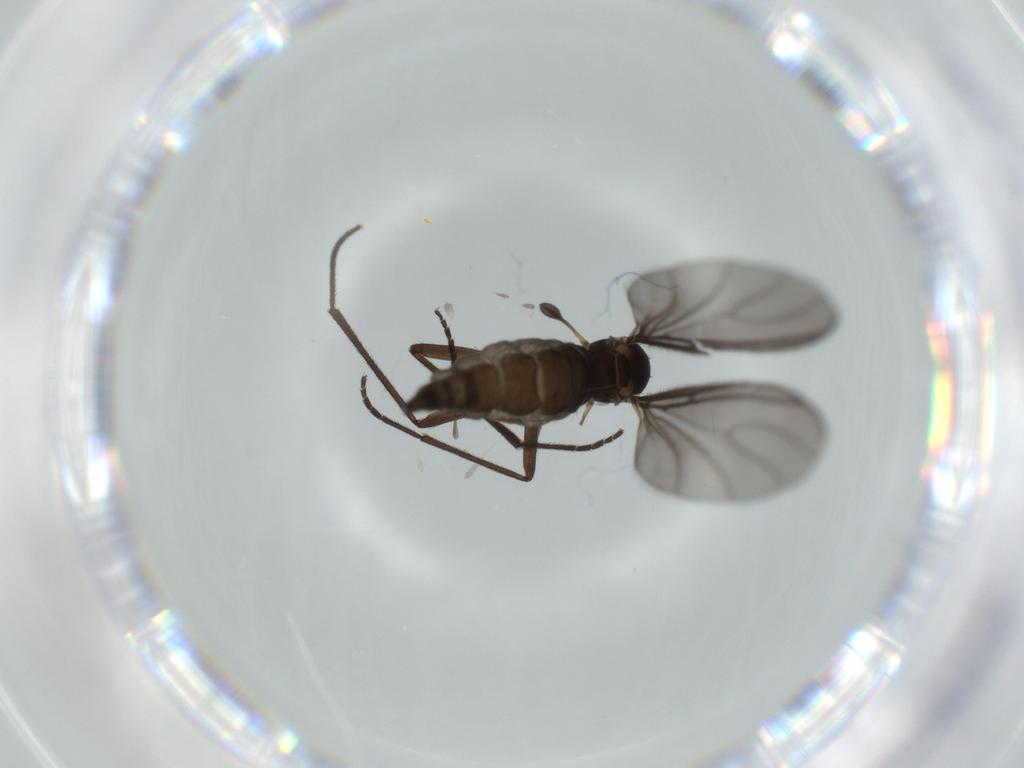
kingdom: Animalia
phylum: Arthropoda
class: Insecta
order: Diptera
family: Sciaridae
